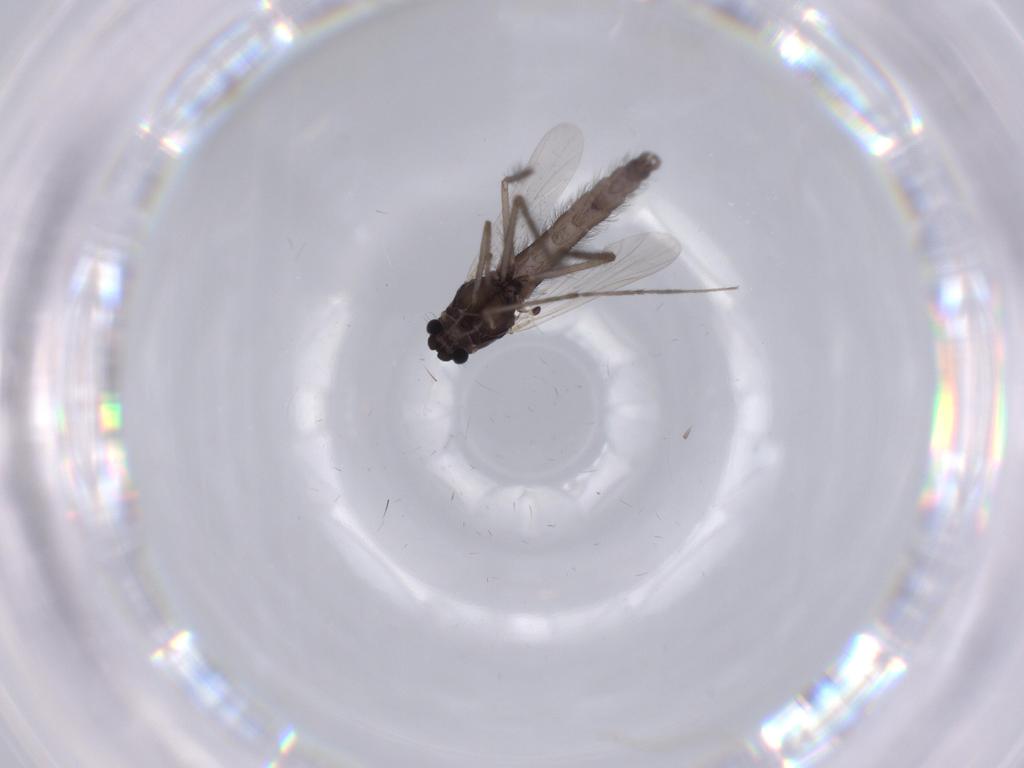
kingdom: Animalia
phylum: Arthropoda
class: Insecta
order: Diptera
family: Chironomidae
